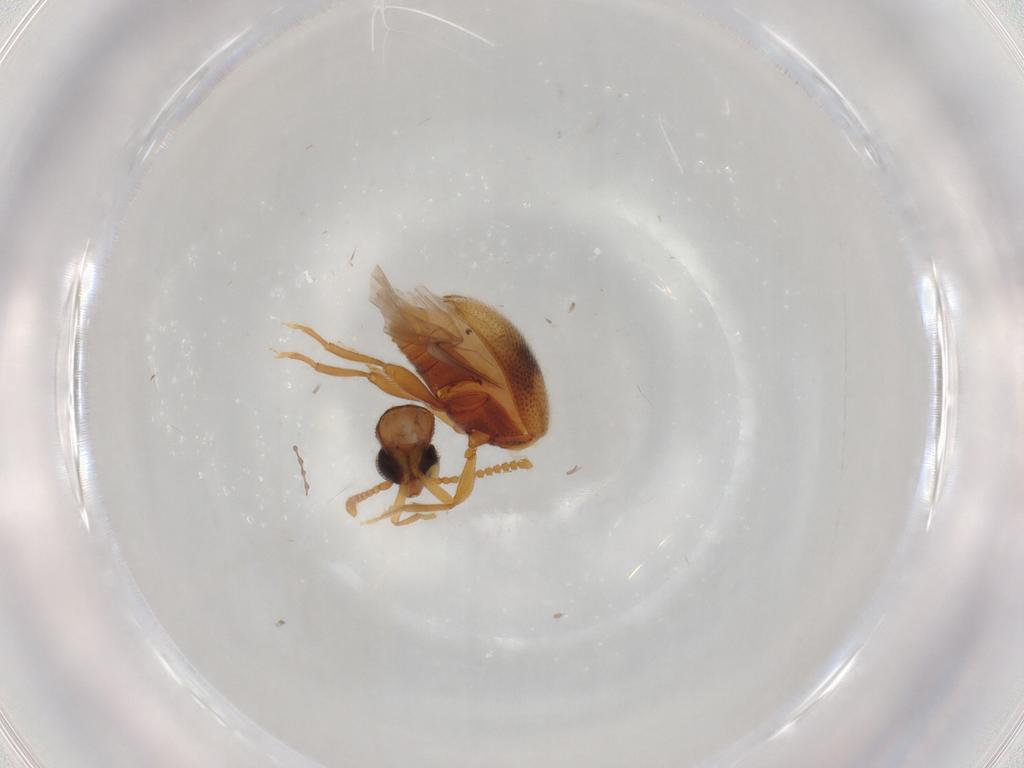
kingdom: Animalia
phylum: Arthropoda
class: Insecta
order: Coleoptera
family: Aderidae
